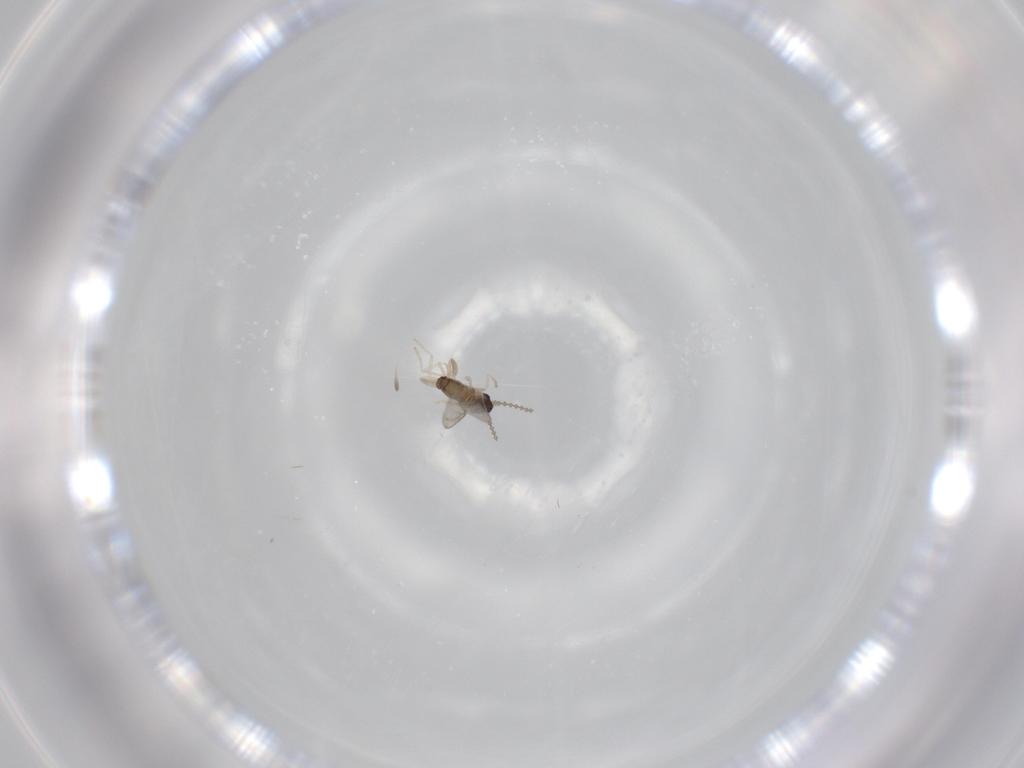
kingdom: Animalia
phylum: Arthropoda
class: Insecta
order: Diptera
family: Cecidomyiidae
